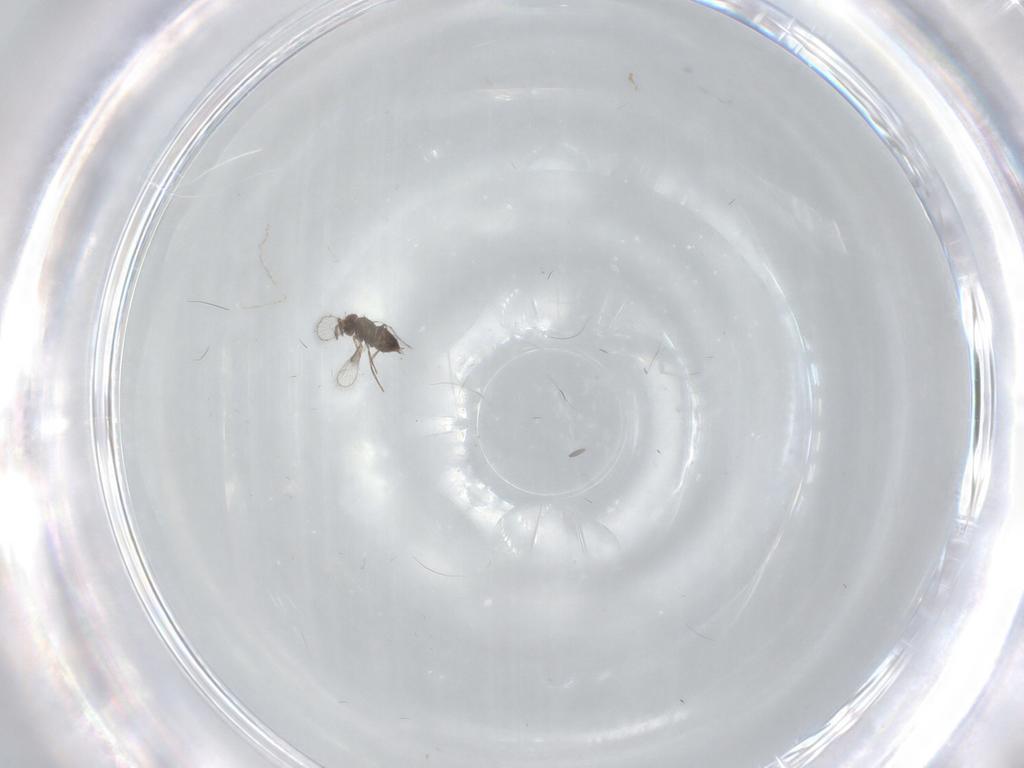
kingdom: Animalia
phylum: Arthropoda
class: Insecta
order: Hymenoptera
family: Trichogrammatidae
